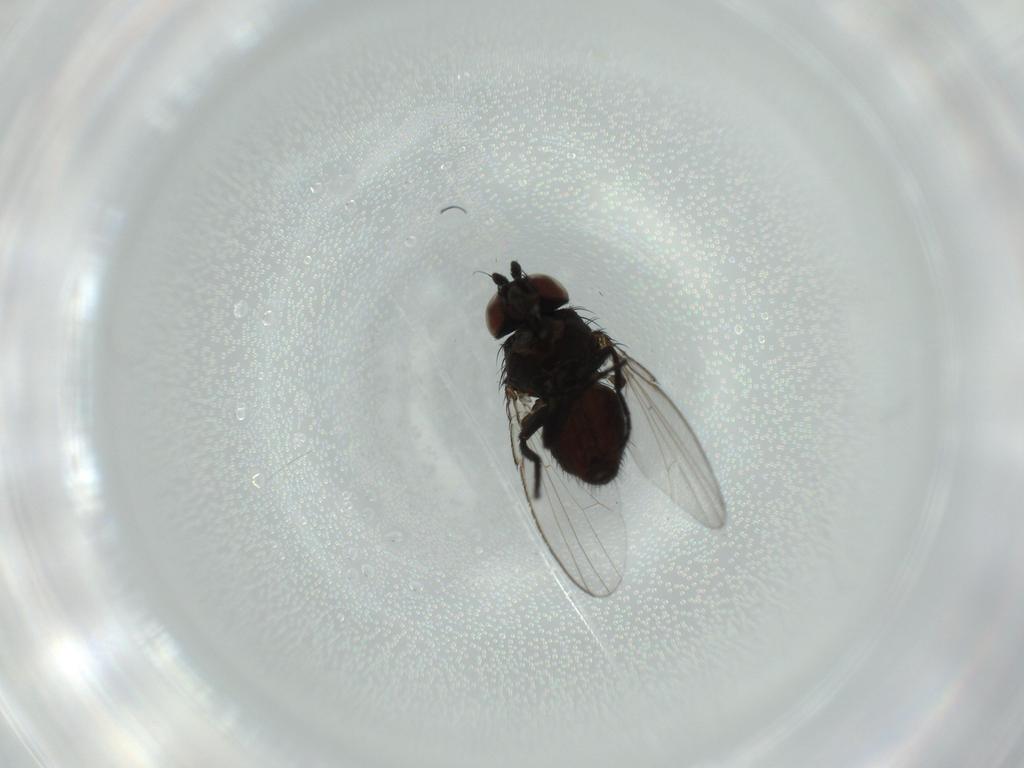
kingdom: Animalia
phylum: Arthropoda
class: Insecta
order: Diptera
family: Milichiidae
